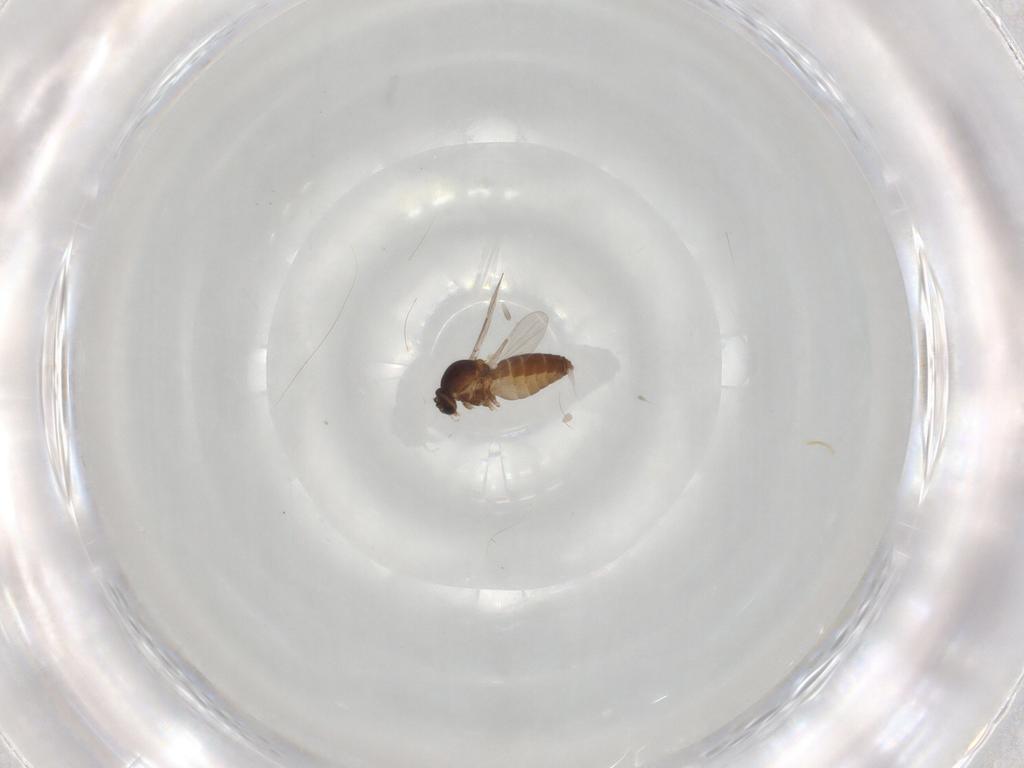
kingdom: Animalia
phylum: Arthropoda
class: Insecta
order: Diptera
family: Ceratopogonidae
